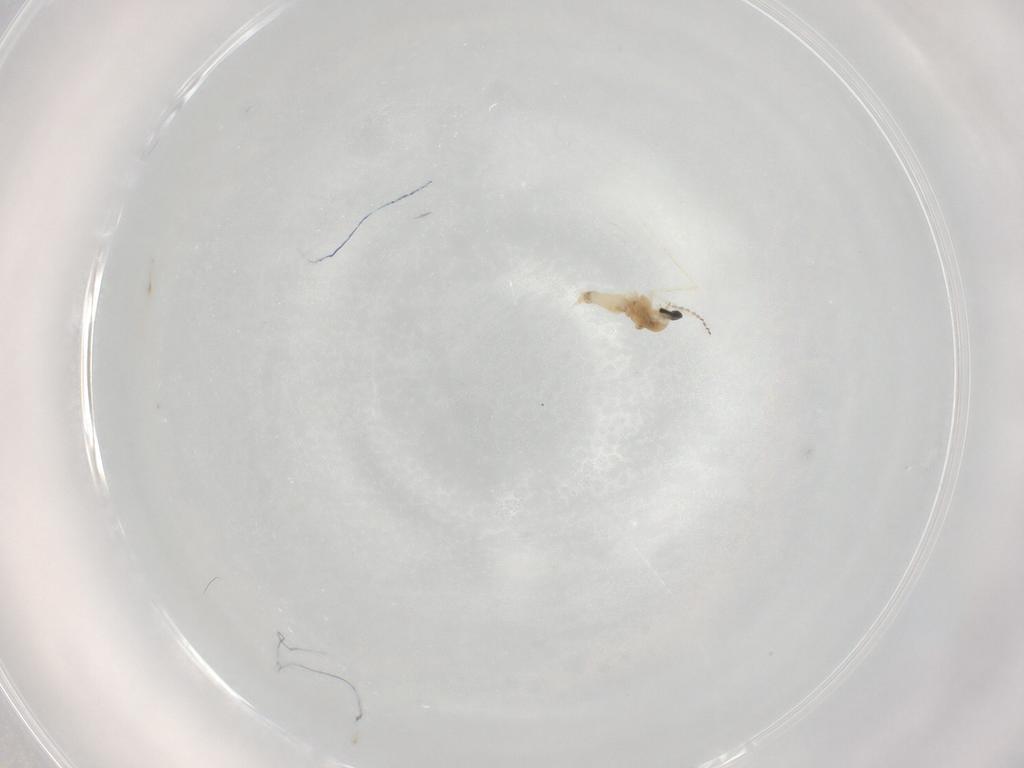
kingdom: Animalia
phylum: Arthropoda
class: Insecta
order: Diptera
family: Cecidomyiidae
